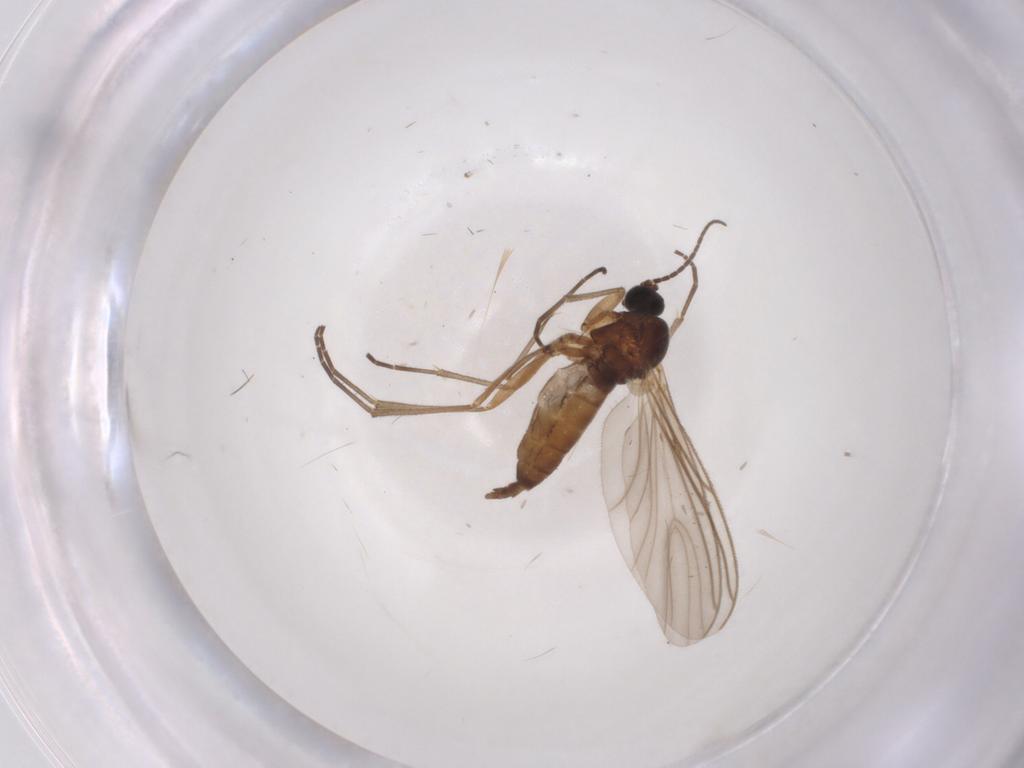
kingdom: Animalia
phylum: Arthropoda
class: Insecta
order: Diptera
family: Sciaridae
